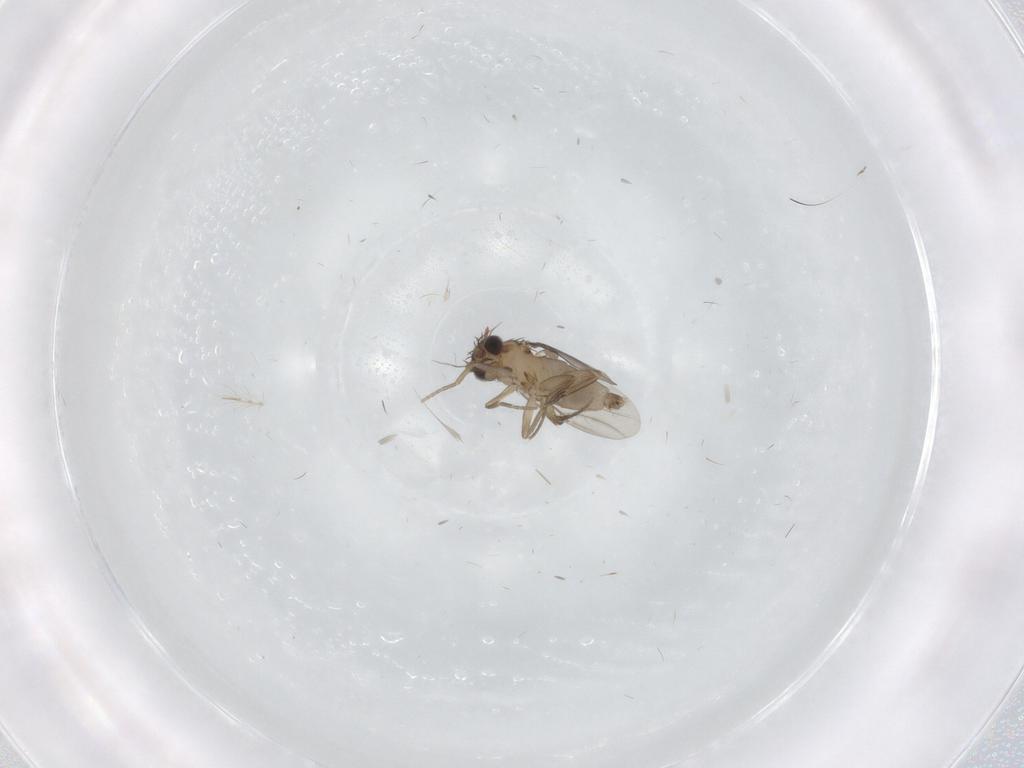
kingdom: Animalia
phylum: Arthropoda
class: Insecta
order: Diptera
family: Chironomidae
